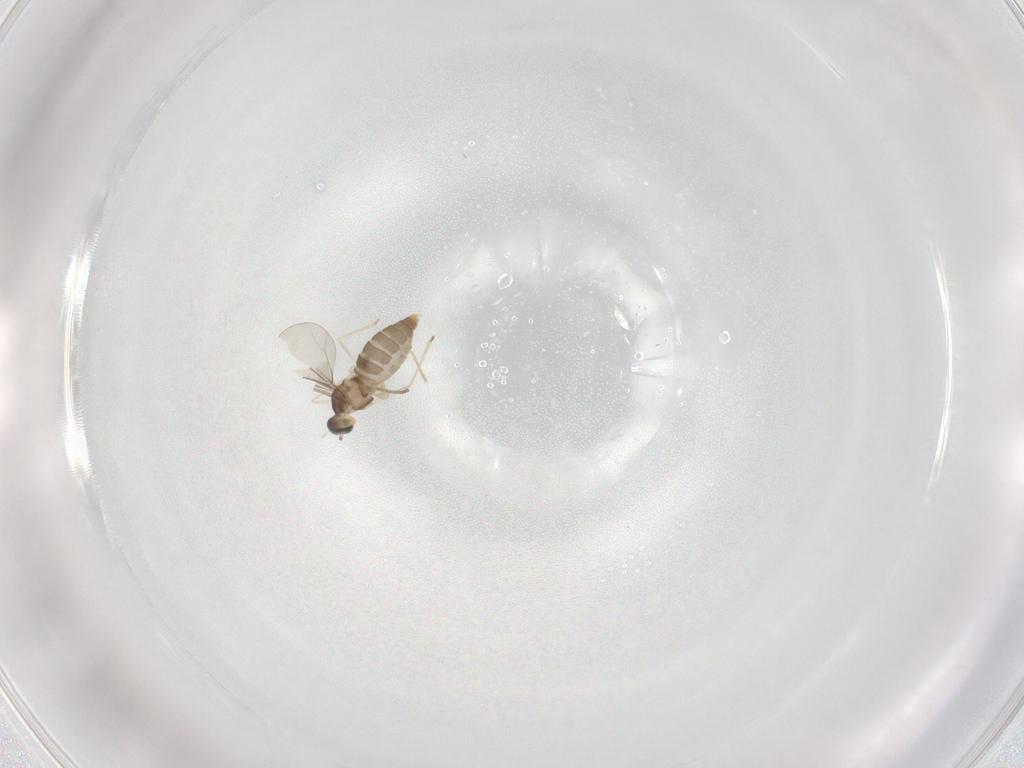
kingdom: Animalia
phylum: Arthropoda
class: Insecta
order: Diptera
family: Cecidomyiidae
